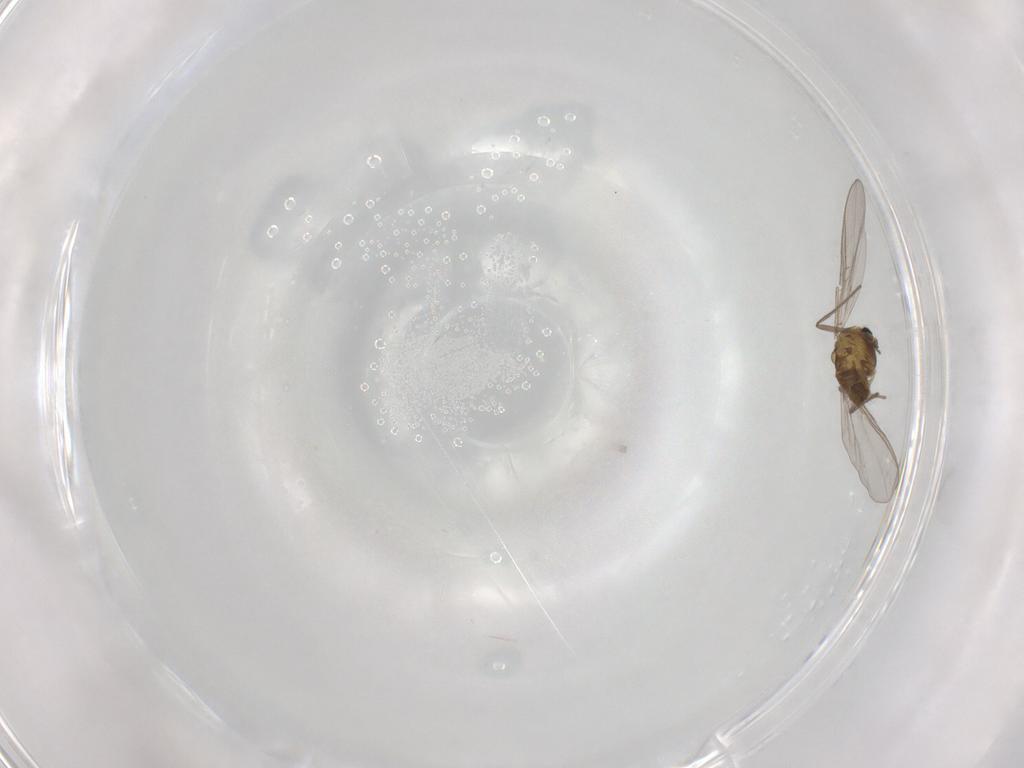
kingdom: Animalia
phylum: Arthropoda
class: Insecta
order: Diptera
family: Chironomidae
